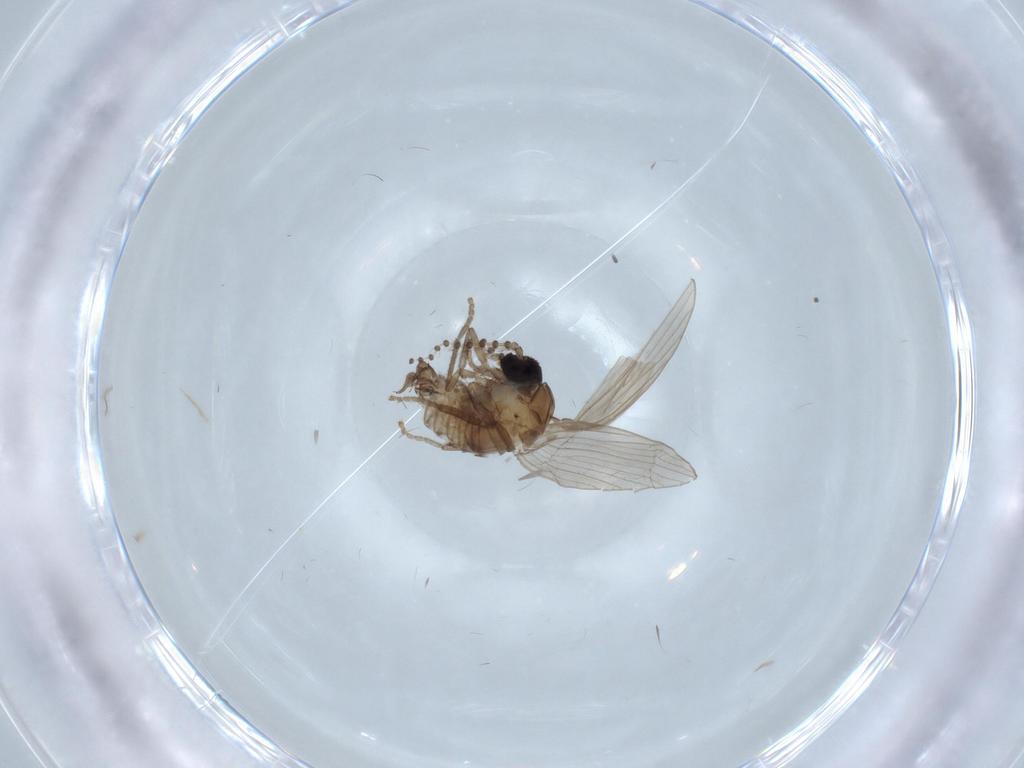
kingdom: Animalia
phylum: Arthropoda
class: Insecta
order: Diptera
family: Psychodidae
